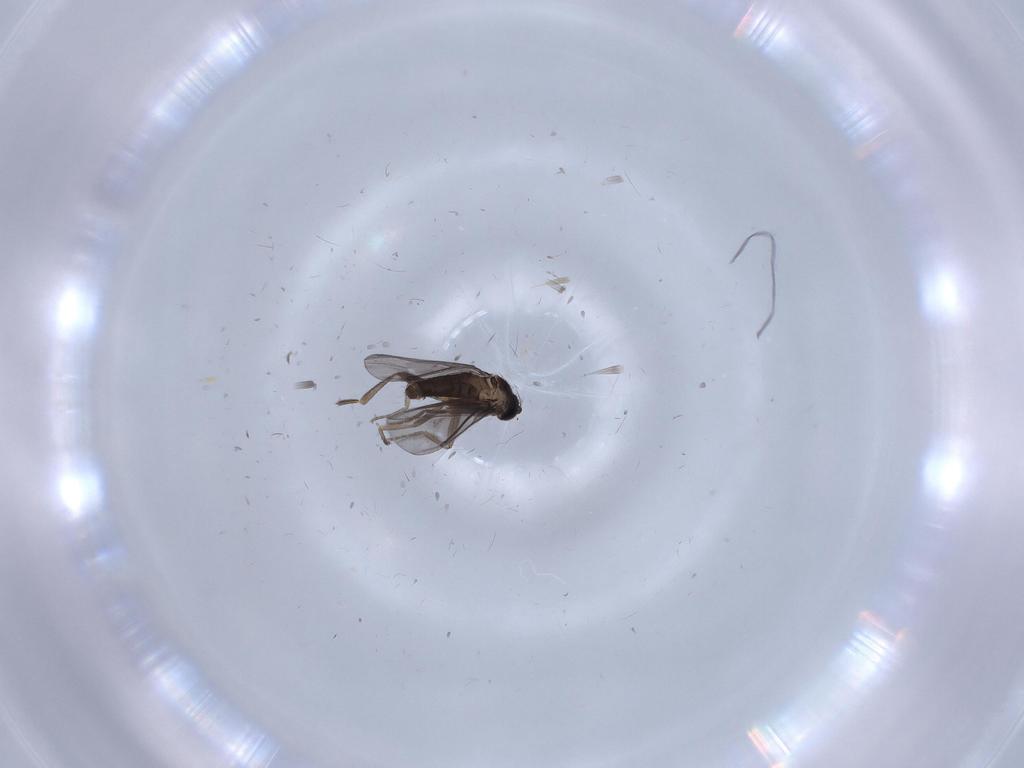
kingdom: Animalia
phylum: Arthropoda
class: Insecta
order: Diptera
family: Phoridae
